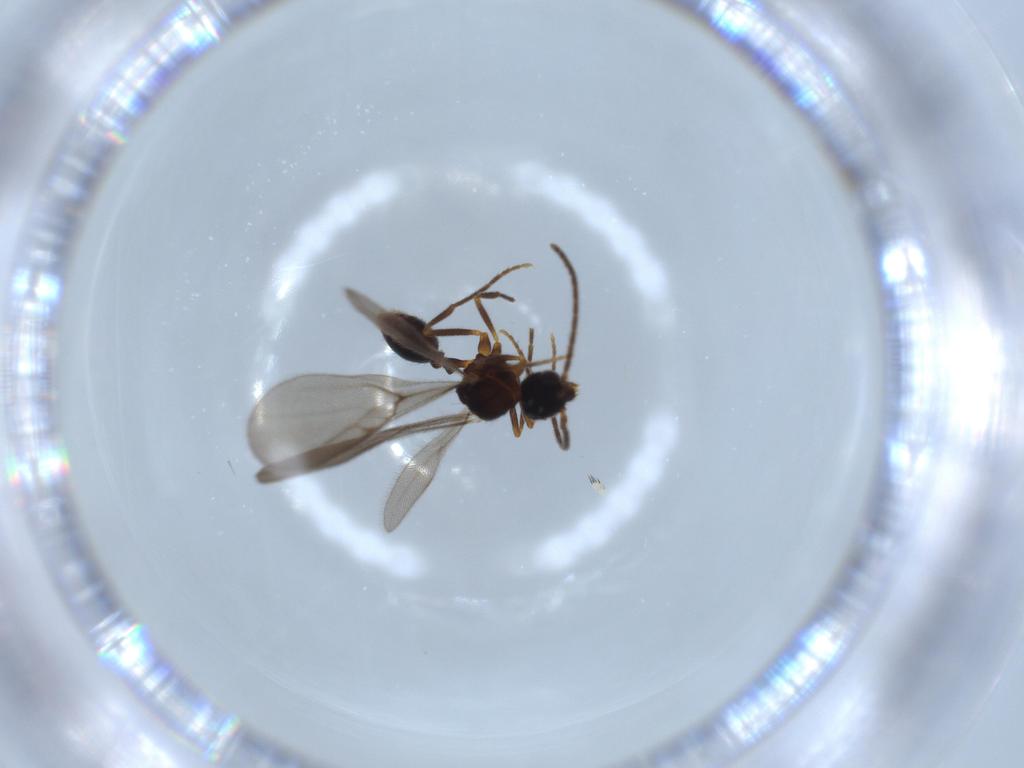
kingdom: Animalia
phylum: Arthropoda
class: Insecta
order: Hymenoptera
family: Formicidae
